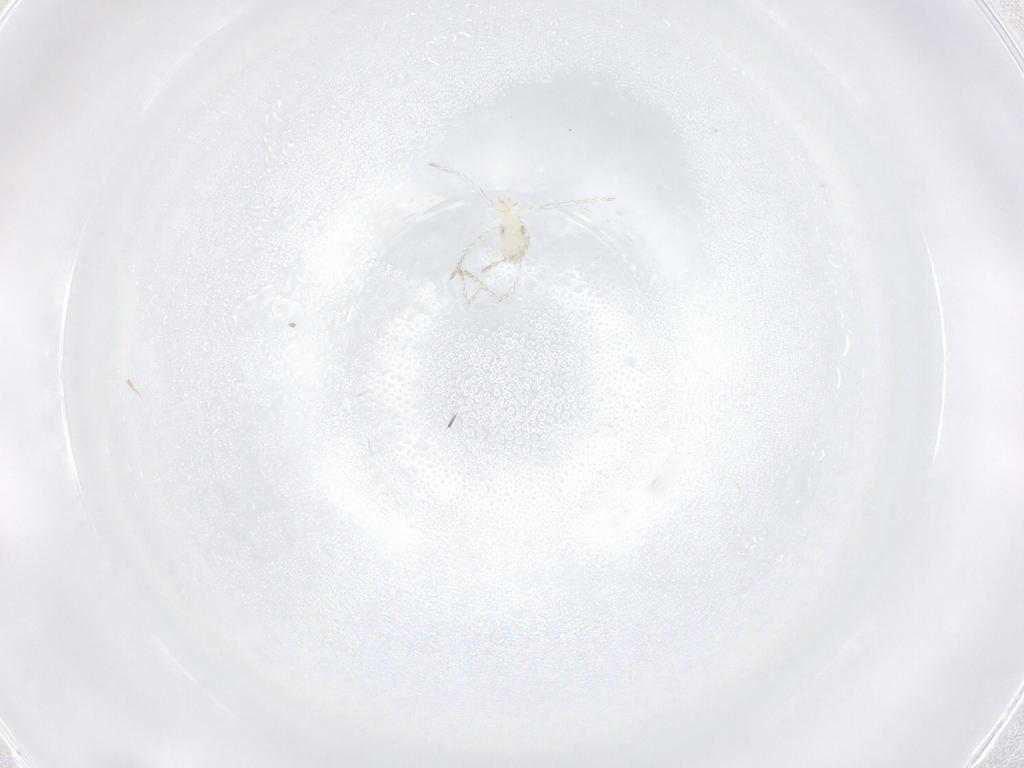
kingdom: Animalia
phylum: Arthropoda
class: Arachnida
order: Trombidiformes
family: Erythraeidae
